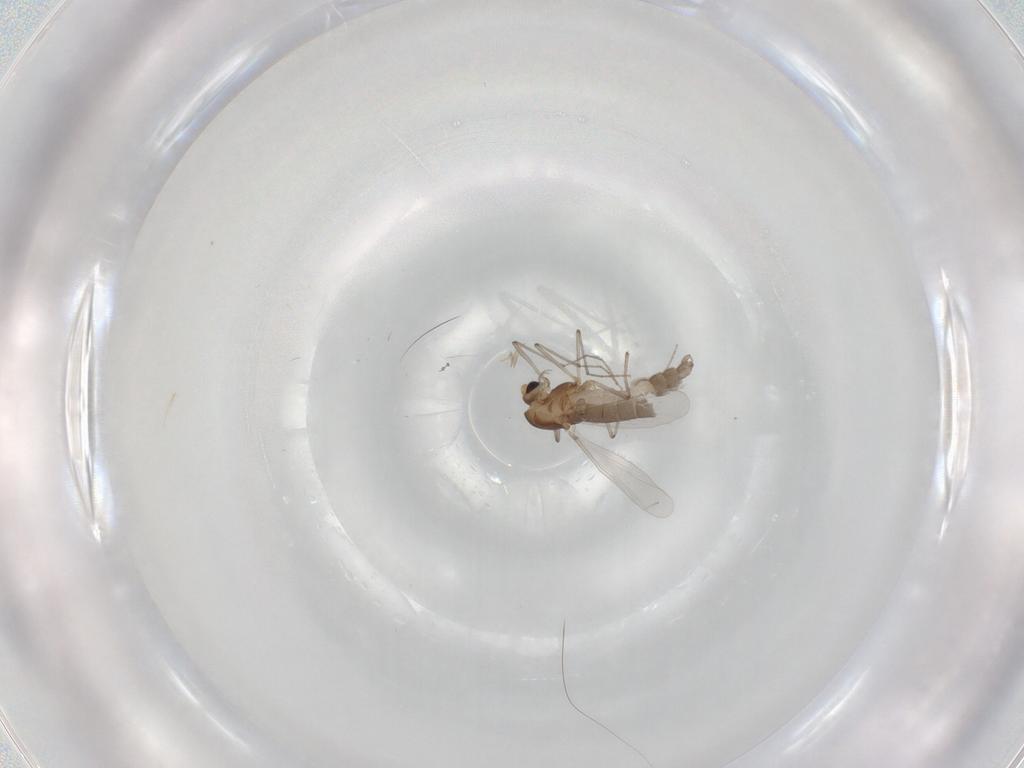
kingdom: Animalia
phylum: Arthropoda
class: Insecta
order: Diptera
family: Chironomidae
